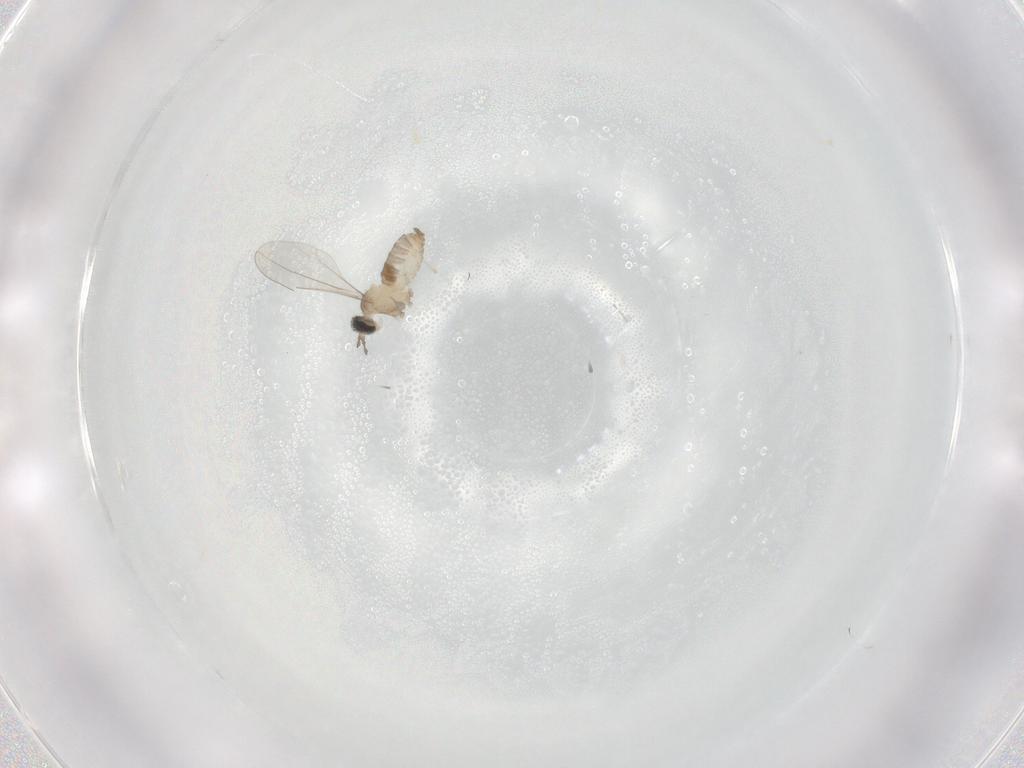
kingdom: Animalia
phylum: Arthropoda
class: Insecta
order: Diptera
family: Cecidomyiidae
